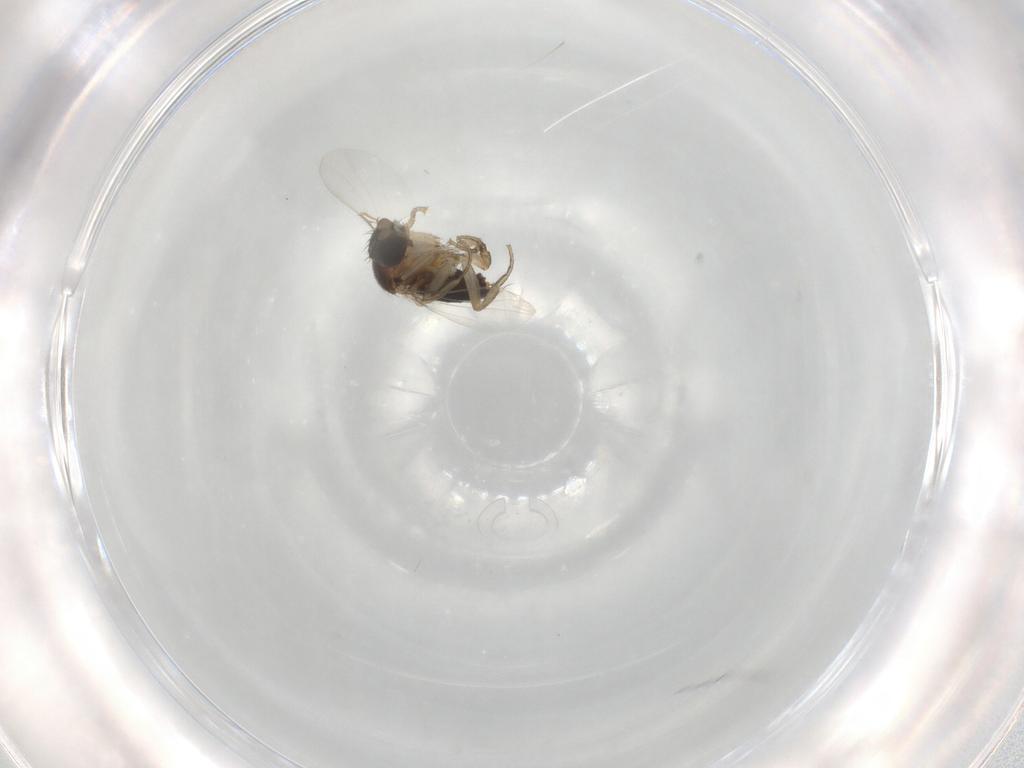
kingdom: Animalia
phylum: Arthropoda
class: Insecta
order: Diptera
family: Phoridae
